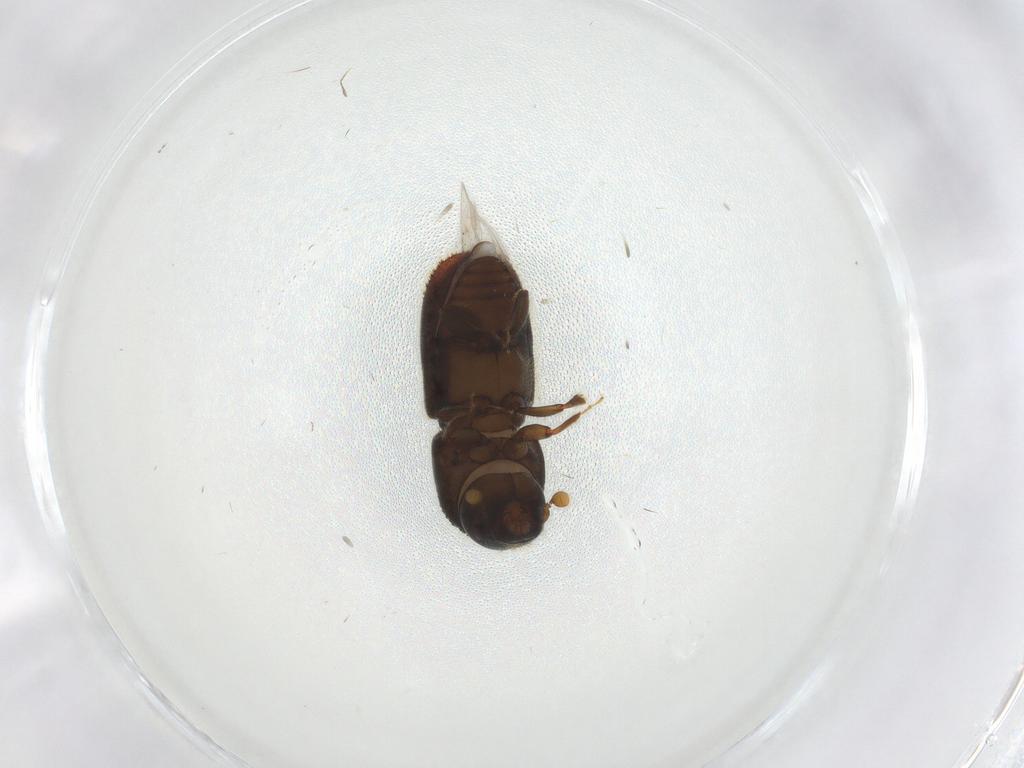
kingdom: Animalia
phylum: Arthropoda
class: Insecta
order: Coleoptera
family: Curculionidae
